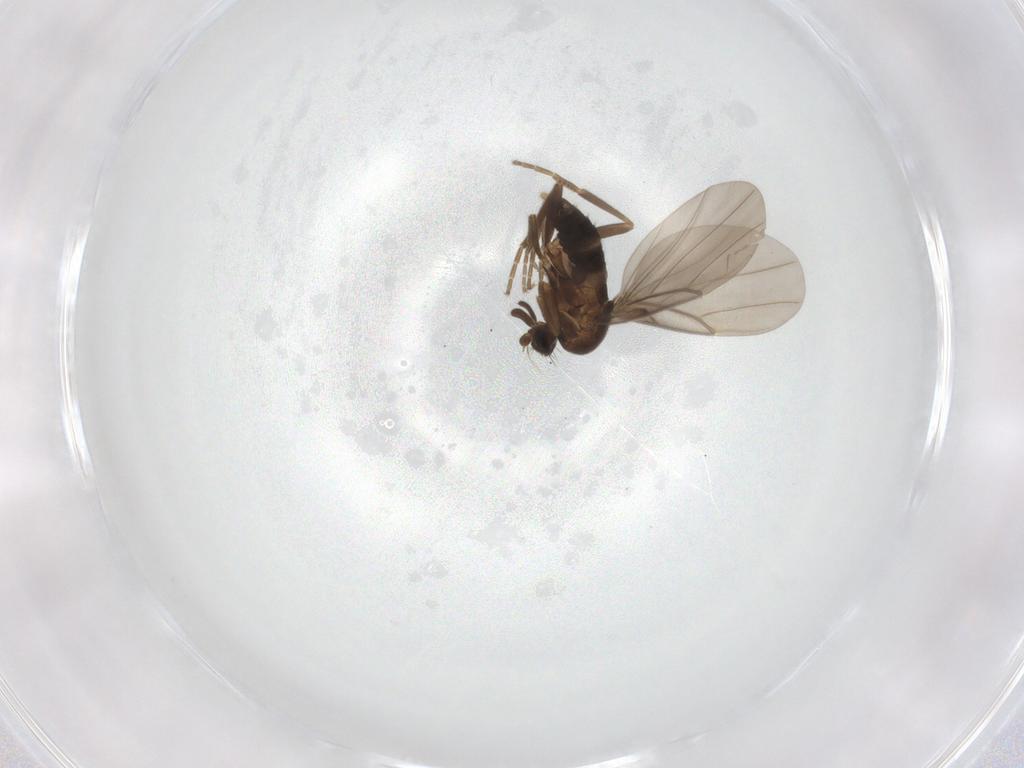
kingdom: Animalia
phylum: Arthropoda
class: Insecta
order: Diptera
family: Phoridae
